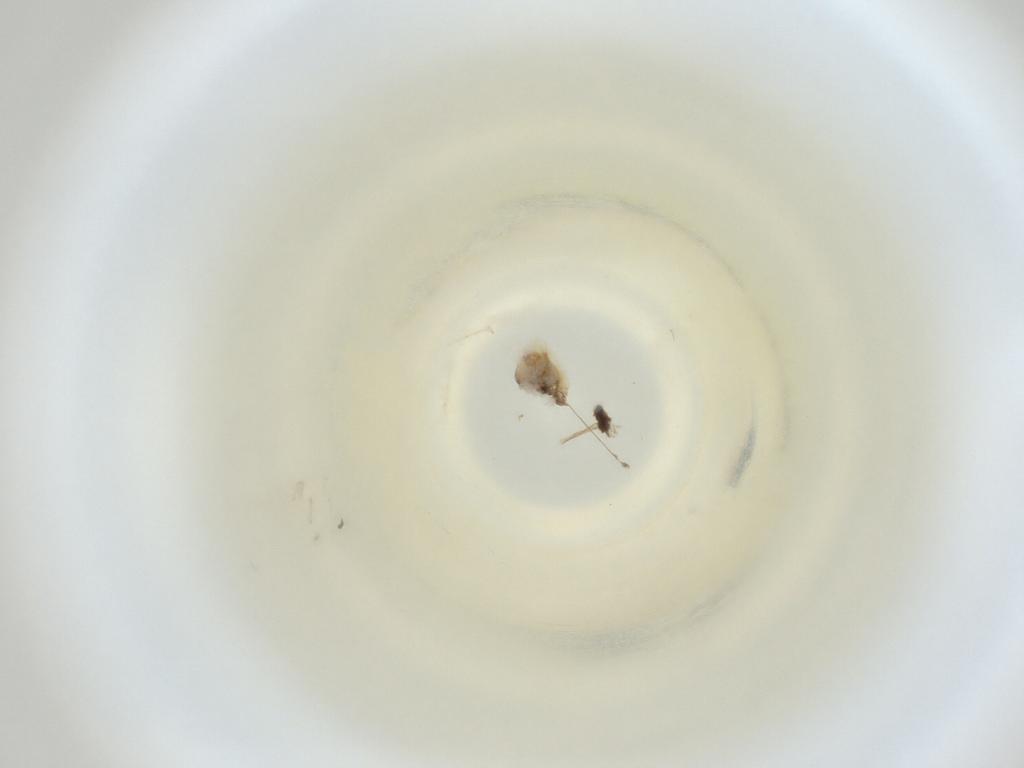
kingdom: Animalia
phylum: Arthropoda
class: Insecta
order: Diptera
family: Cecidomyiidae
